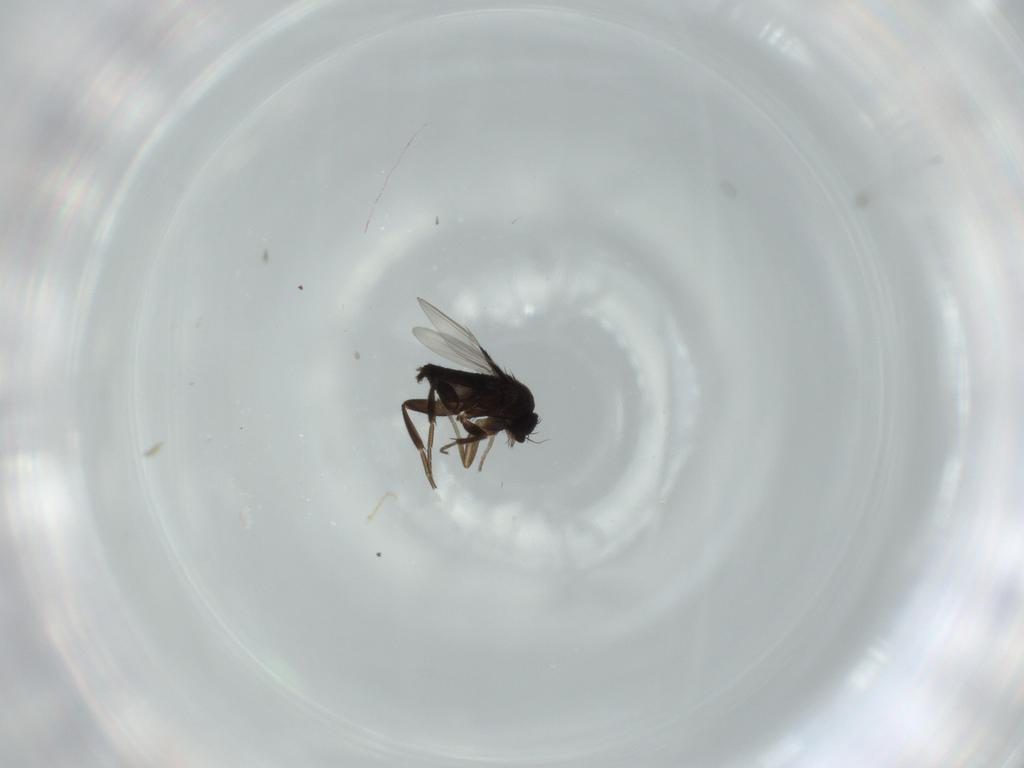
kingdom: Animalia
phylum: Arthropoda
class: Insecta
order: Diptera
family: Phoridae
